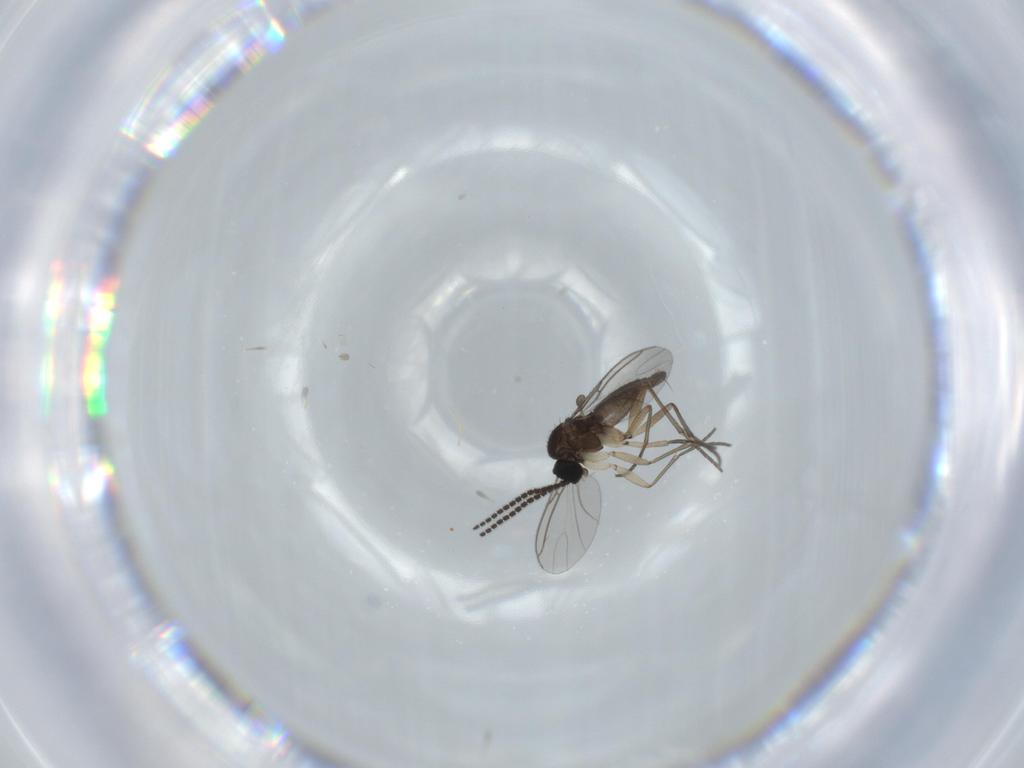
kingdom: Animalia
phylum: Arthropoda
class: Insecta
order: Diptera
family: Sciaridae
